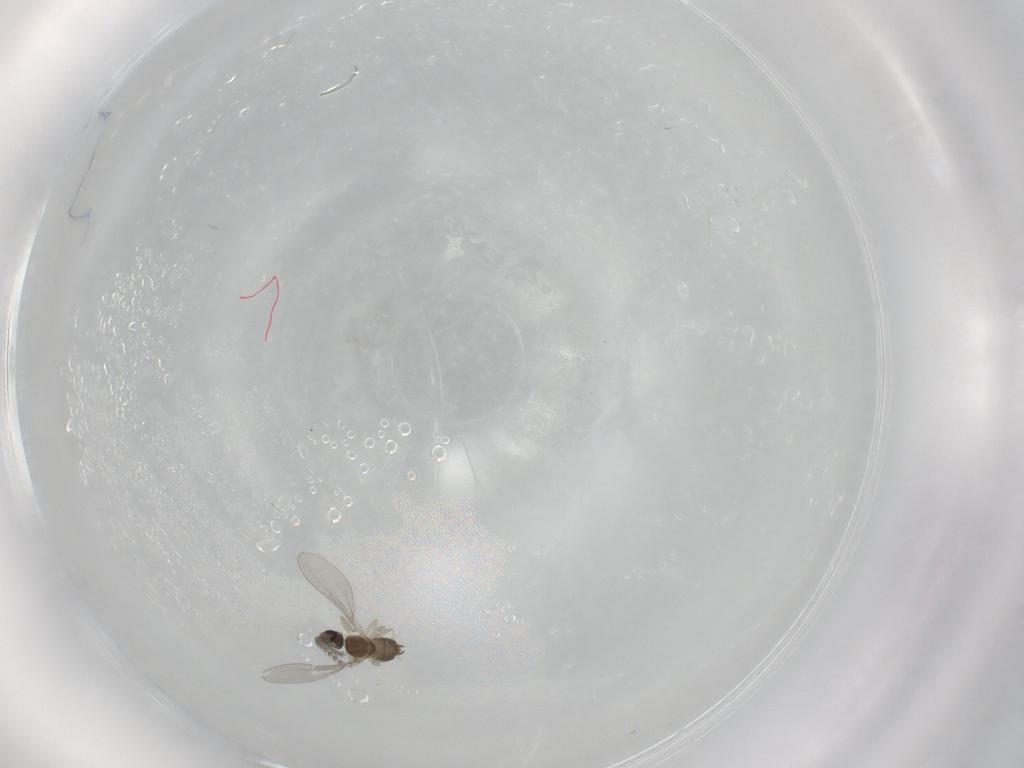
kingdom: Animalia
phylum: Arthropoda
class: Insecta
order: Diptera
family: Cecidomyiidae
